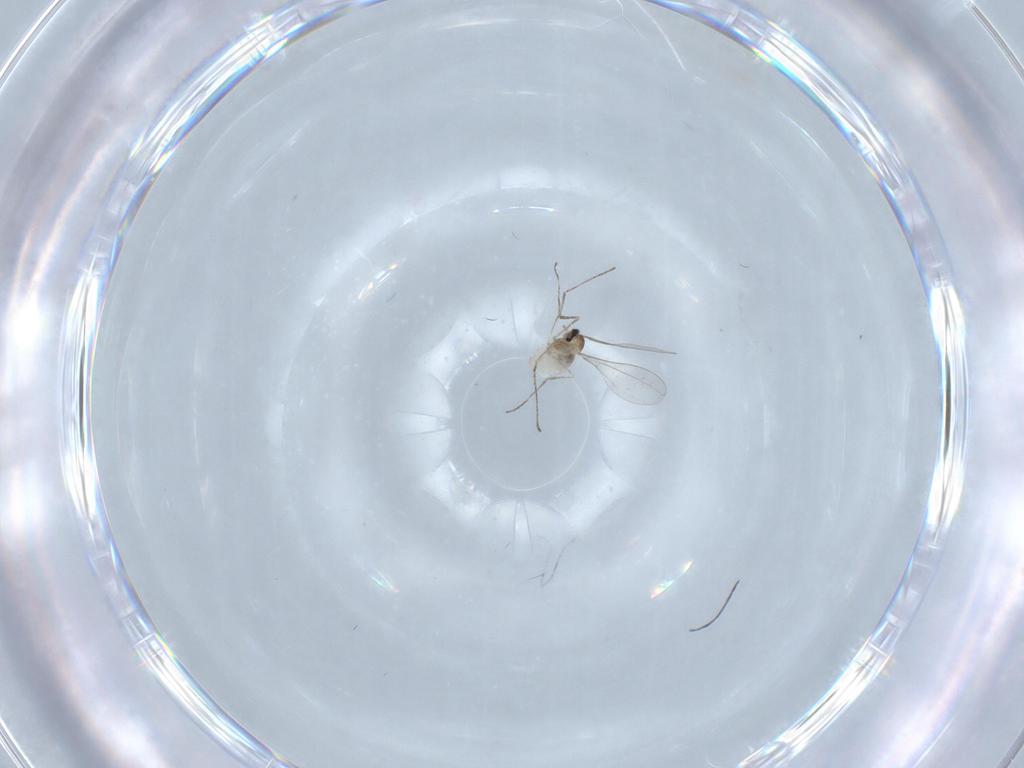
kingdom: Animalia
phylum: Arthropoda
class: Insecta
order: Diptera
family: Cecidomyiidae
